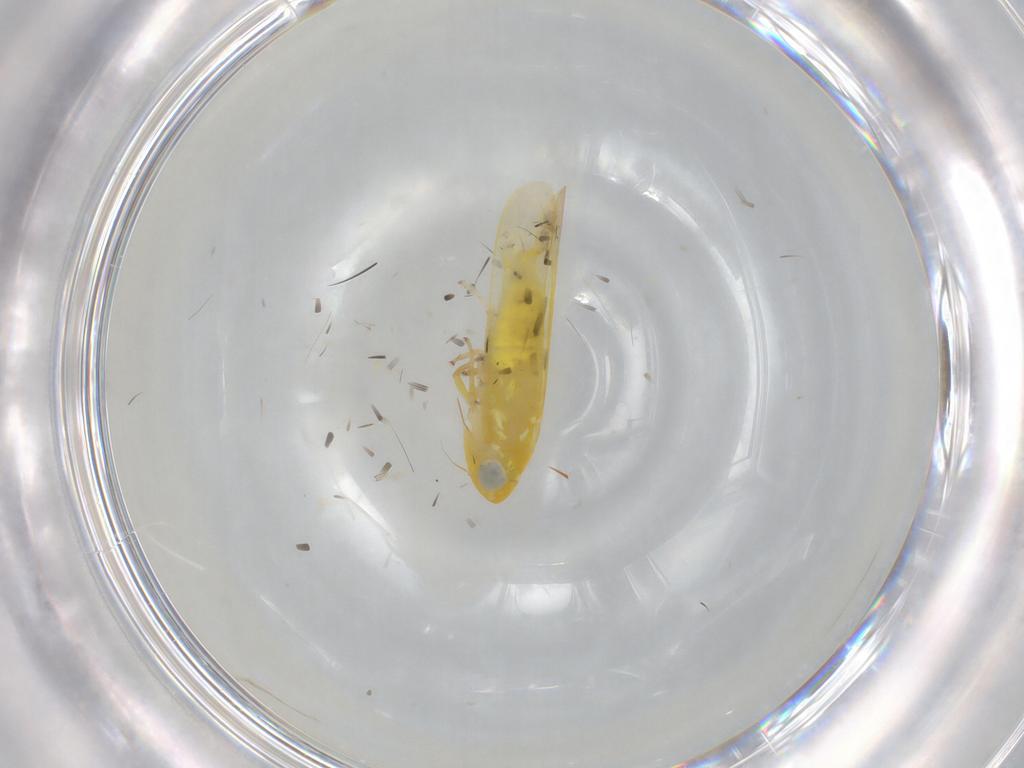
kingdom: Animalia
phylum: Arthropoda
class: Insecta
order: Hemiptera
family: Cicadellidae
